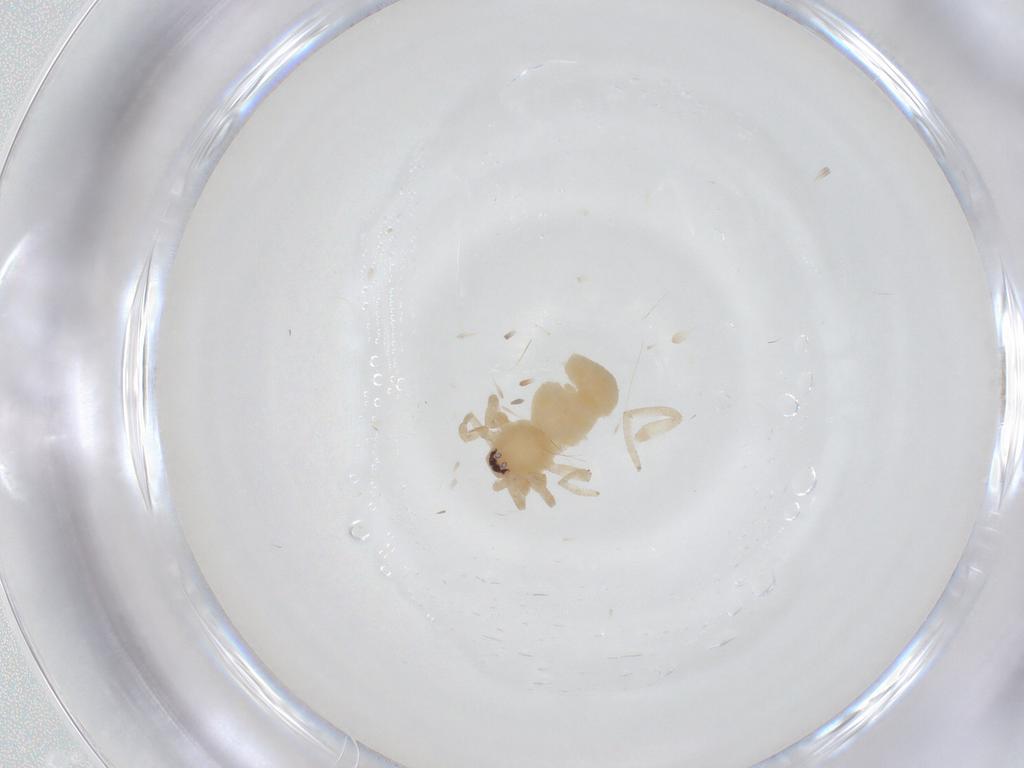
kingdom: Animalia
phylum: Arthropoda
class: Arachnida
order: Araneae
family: Corinnidae
